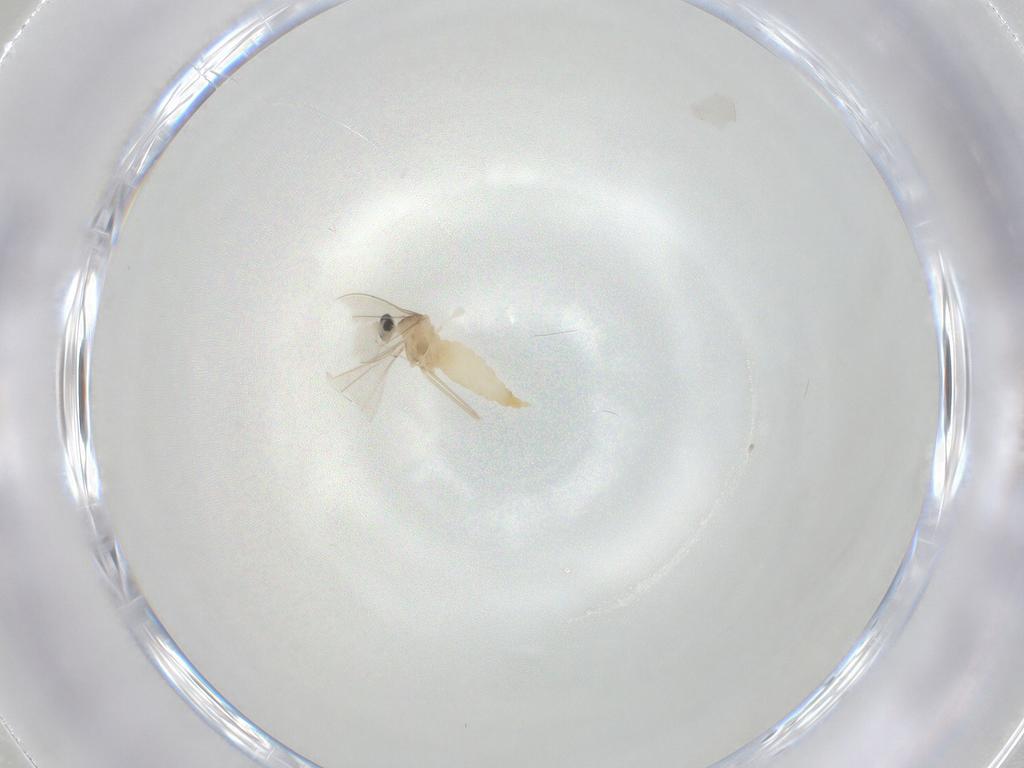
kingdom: Animalia
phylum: Arthropoda
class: Insecta
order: Diptera
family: Cecidomyiidae
